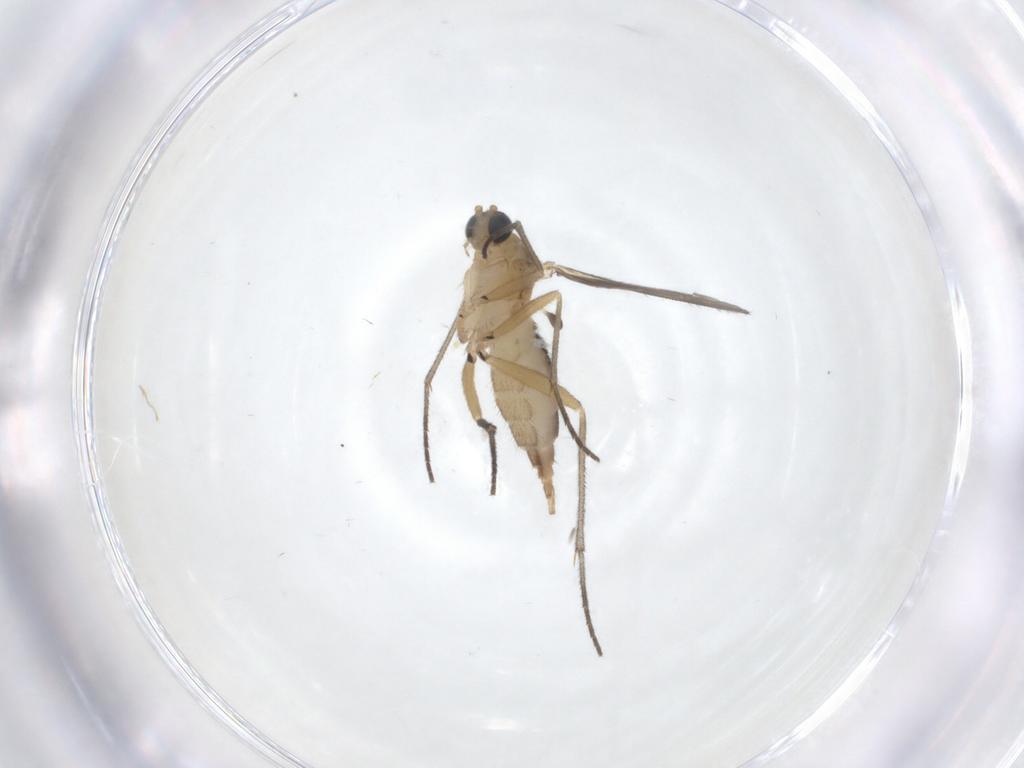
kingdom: Animalia
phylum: Arthropoda
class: Insecta
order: Diptera
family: Sciaridae
